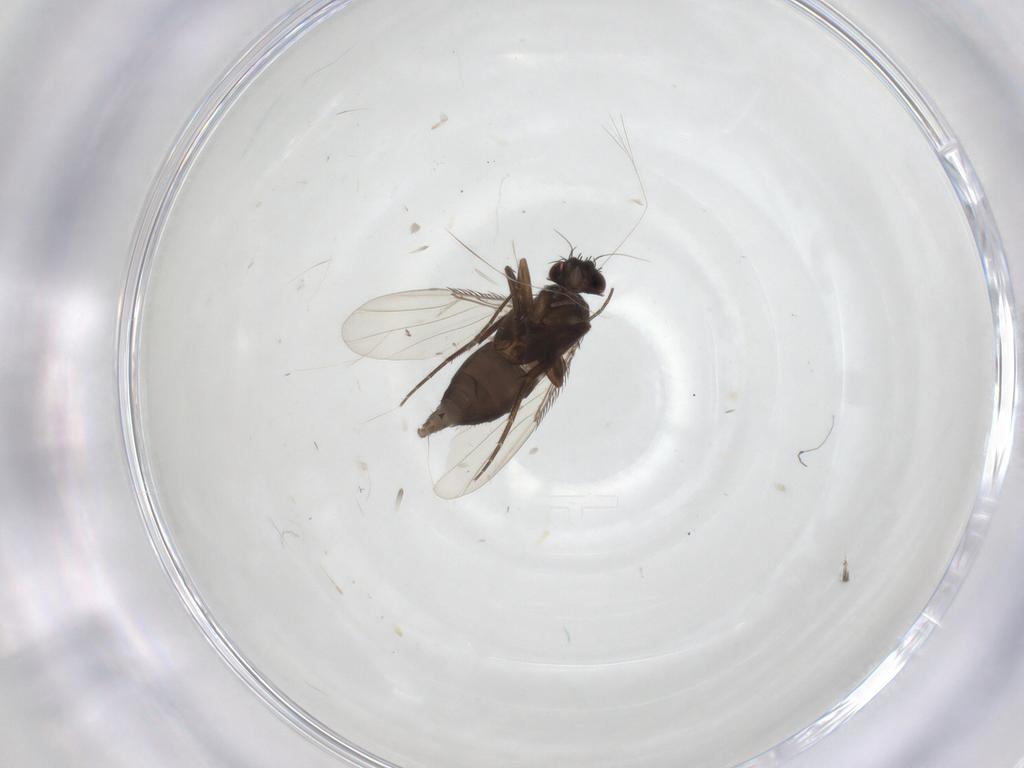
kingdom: Animalia
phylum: Arthropoda
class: Insecta
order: Diptera
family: Phoridae
